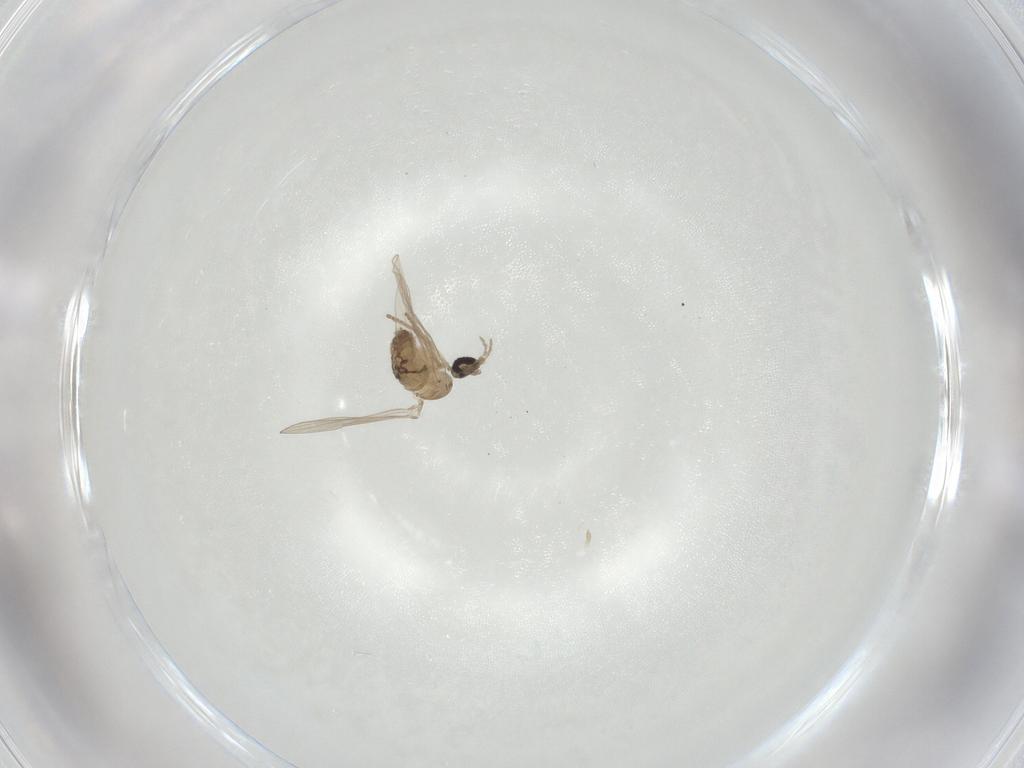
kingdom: Animalia
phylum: Arthropoda
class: Insecta
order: Diptera
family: Psychodidae
